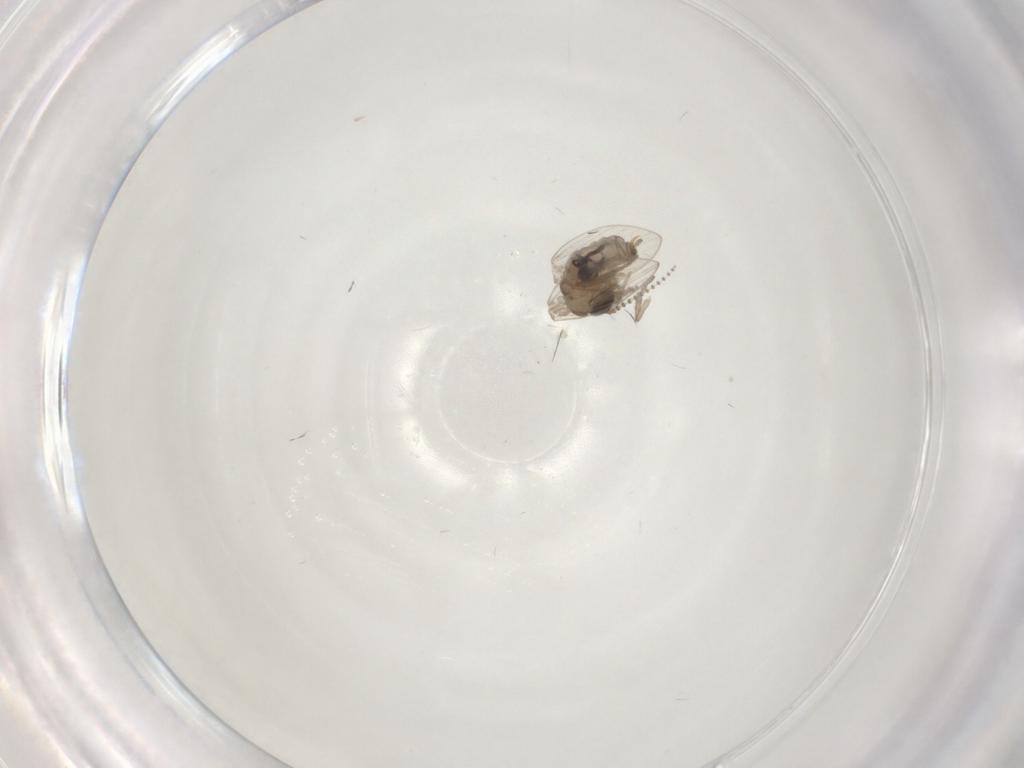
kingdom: Animalia
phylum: Arthropoda
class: Insecta
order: Diptera
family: Chironomidae
